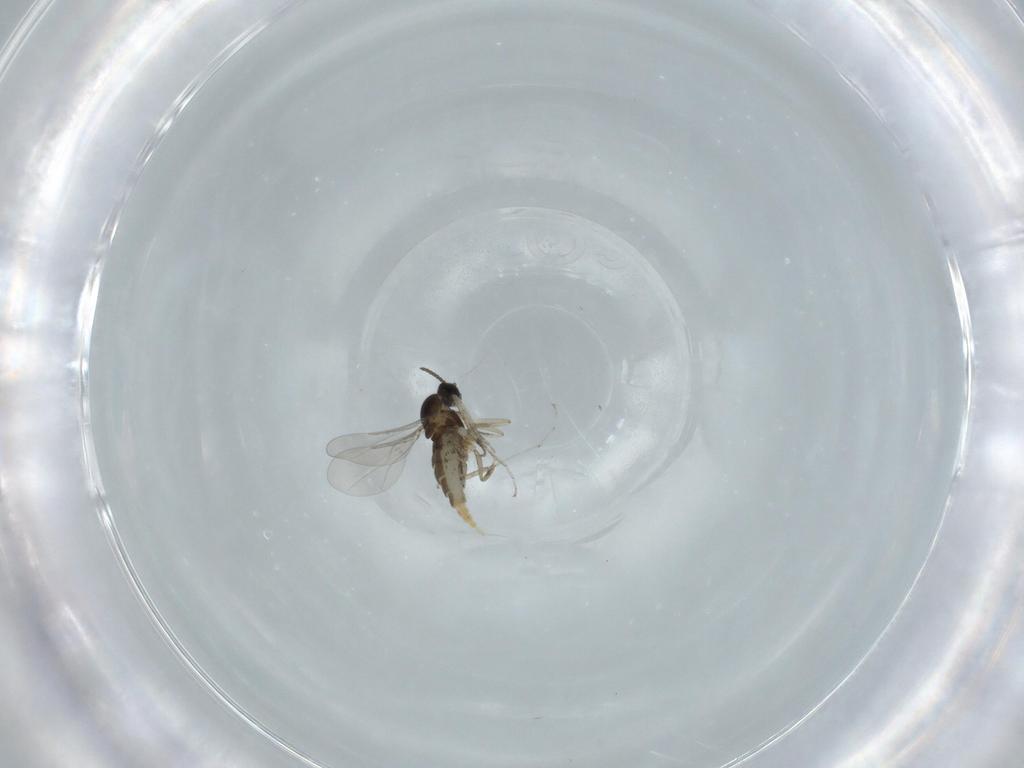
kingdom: Animalia
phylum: Arthropoda
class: Insecta
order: Diptera
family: Cecidomyiidae
